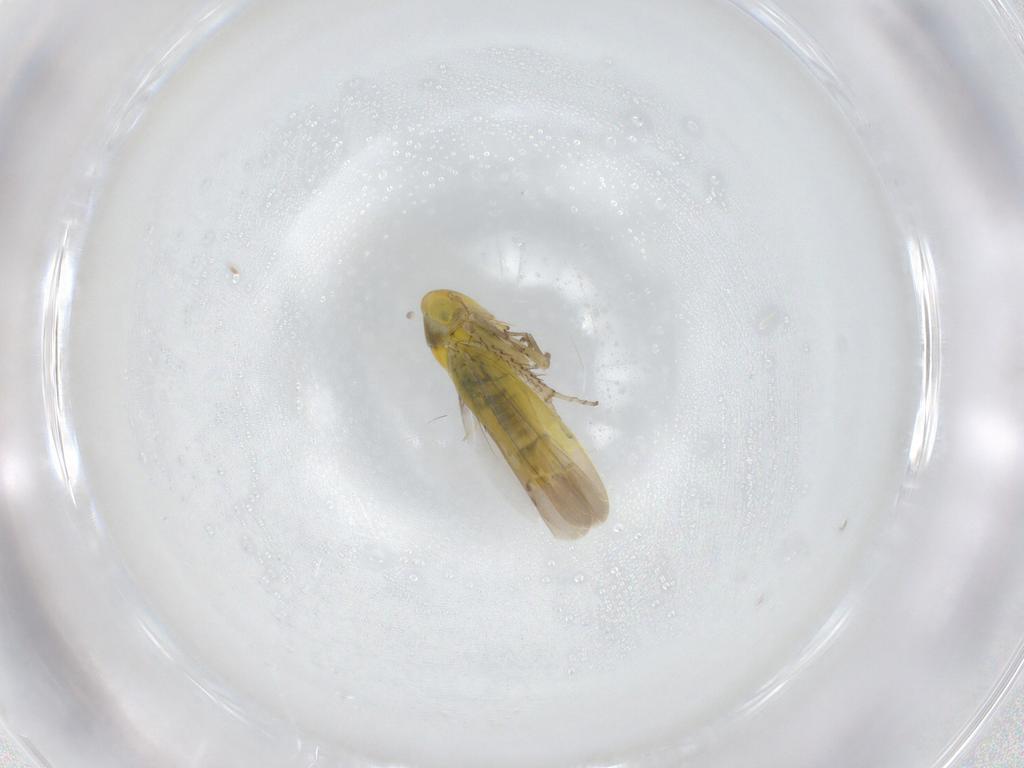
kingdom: Animalia
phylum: Arthropoda
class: Insecta
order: Hemiptera
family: Cicadellidae
